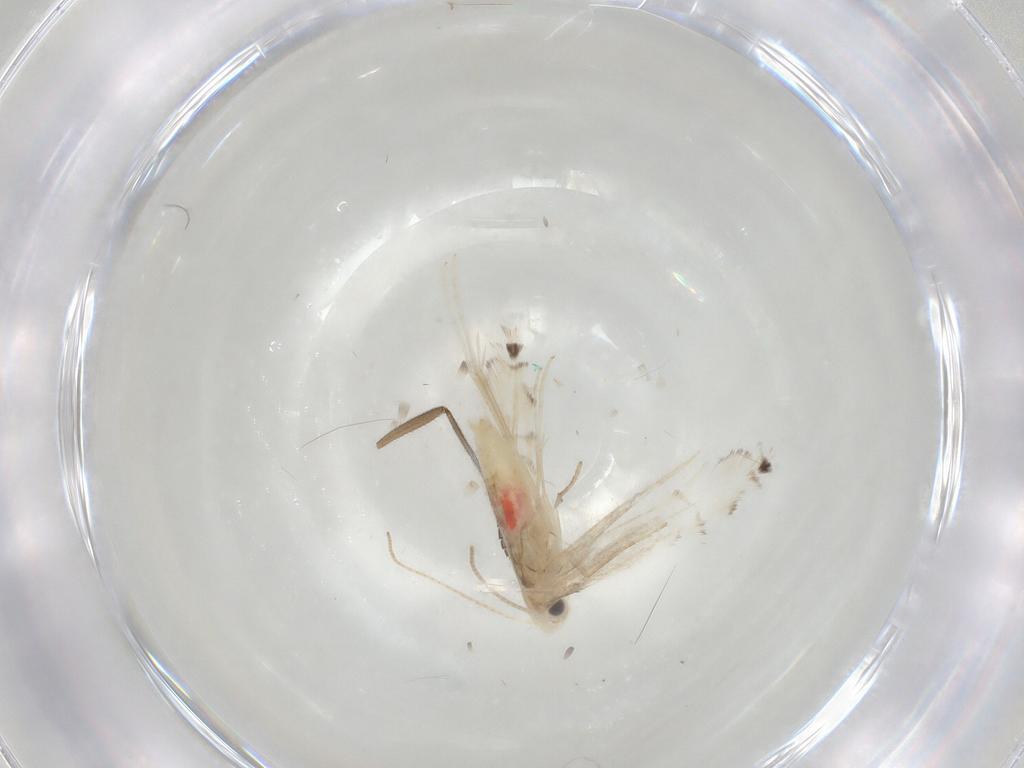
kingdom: Animalia
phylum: Arthropoda
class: Insecta
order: Lepidoptera
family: Gracillariidae
